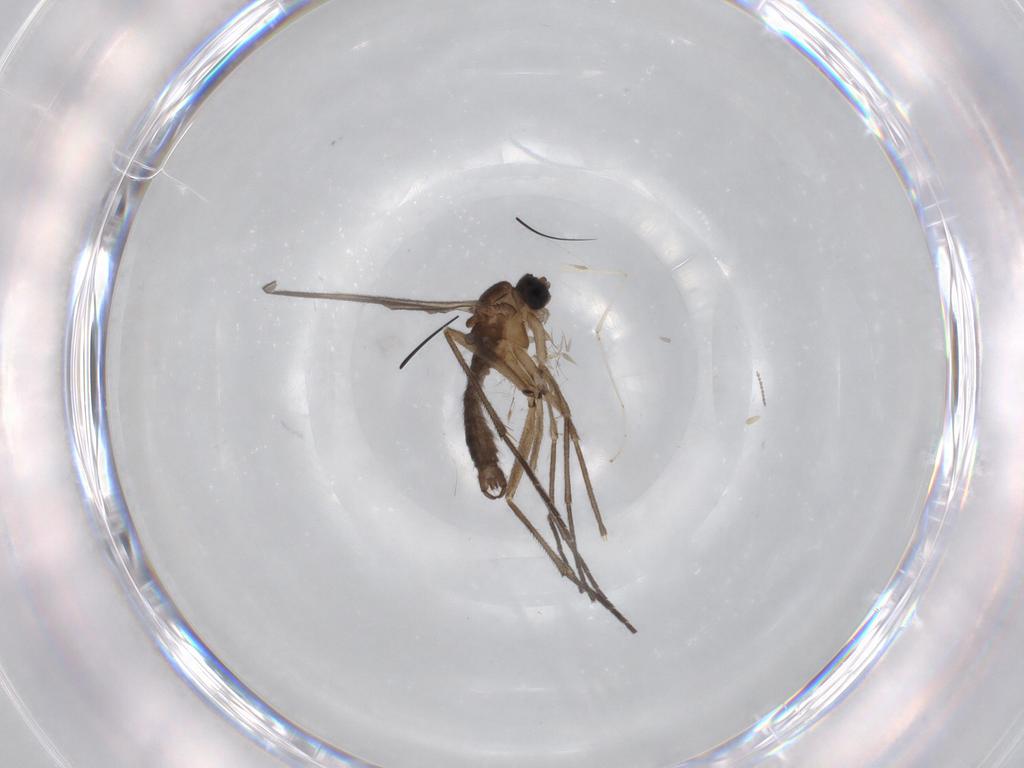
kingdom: Animalia
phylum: Arthropoda
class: Insecta
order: Diptera
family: Cecidomyiidae
